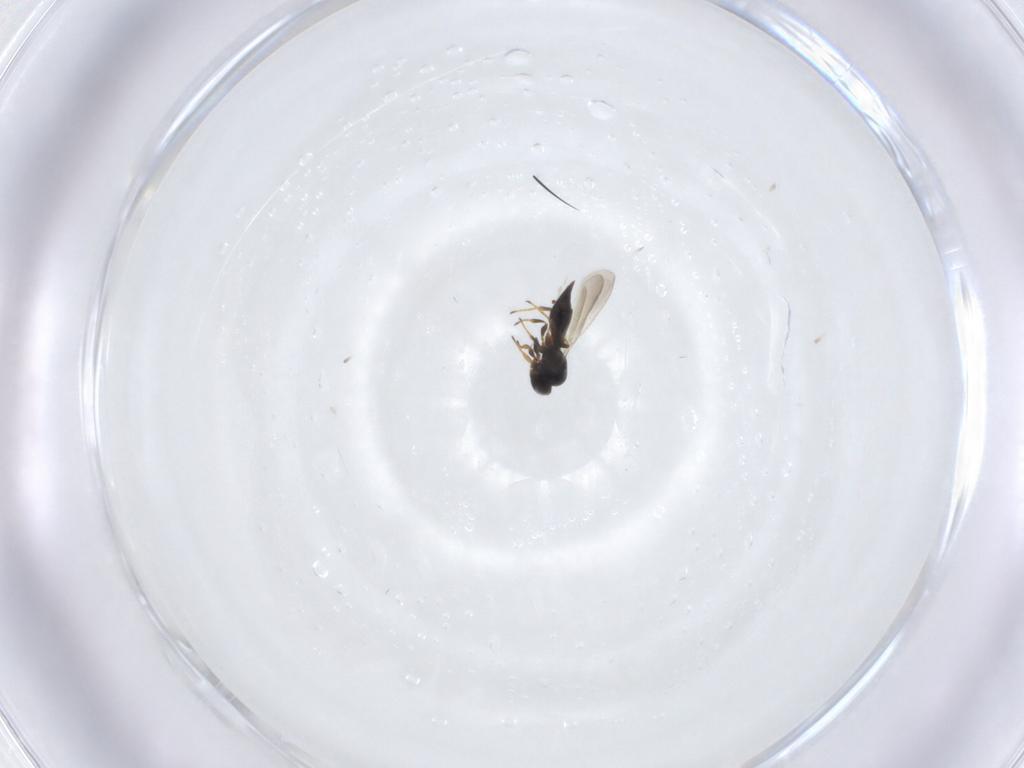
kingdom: Animalia
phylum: Arthropoda
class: Insecta
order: Hymenoptera
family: Platygastridae
